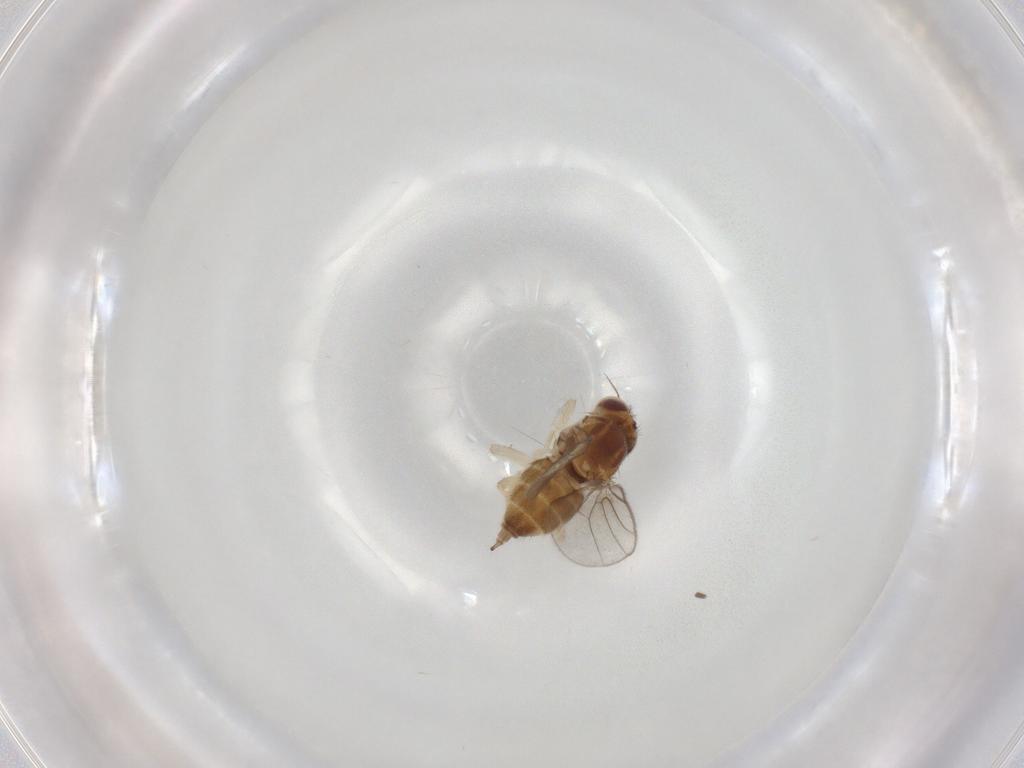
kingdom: Animalia
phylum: Arthropoda
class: Insecta
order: Diptera
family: Chloropidae
